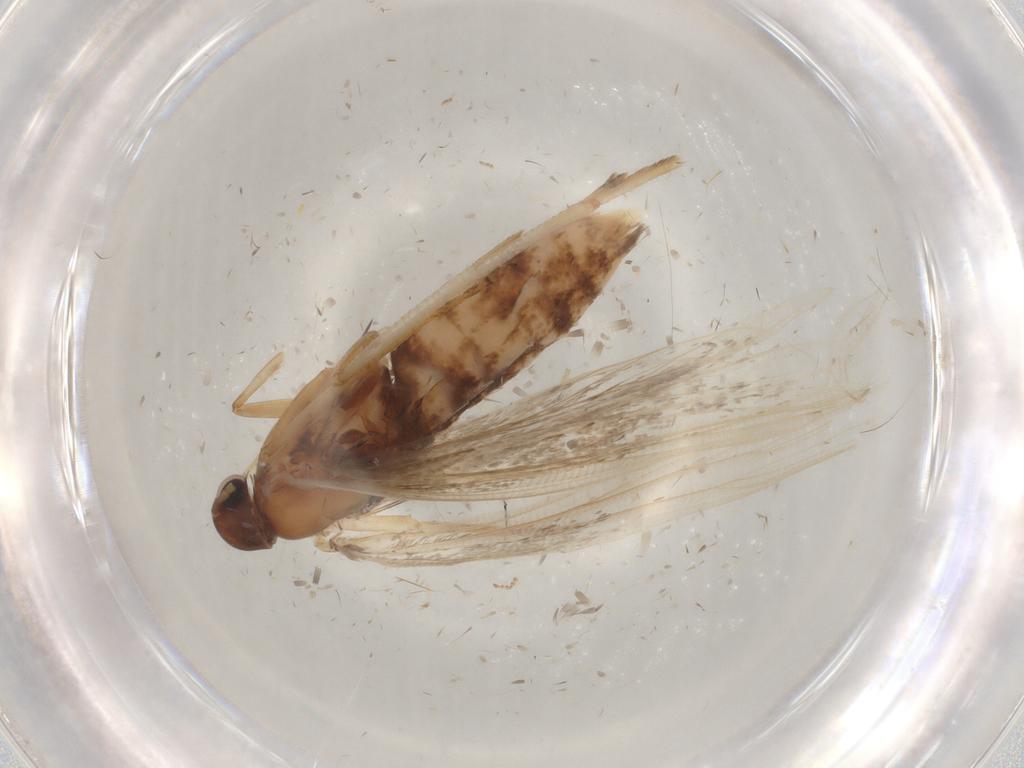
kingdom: Animalia
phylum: Arthropoda
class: Insecta
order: Lepidoptera
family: Gelechiidae
